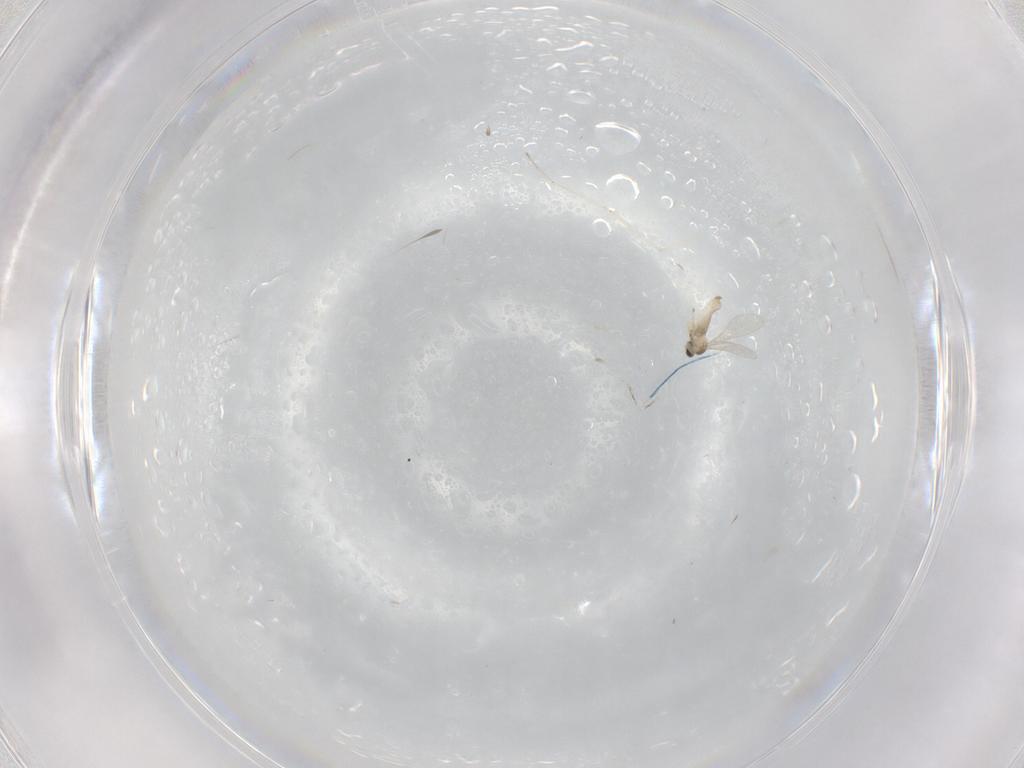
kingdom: Animalia
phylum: Arthropoda
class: Insecta
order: Diptera
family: Cecidomyiidae
